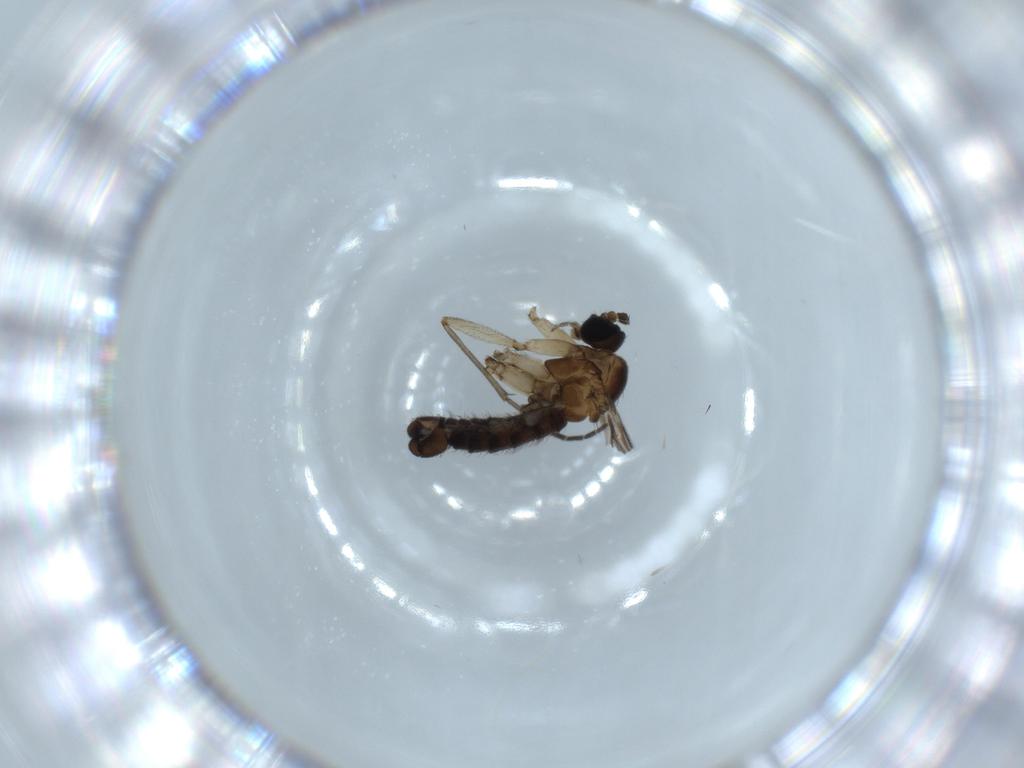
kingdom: Animalia
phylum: Arthropoda
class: Insecta
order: Diptera
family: Sciaridae
